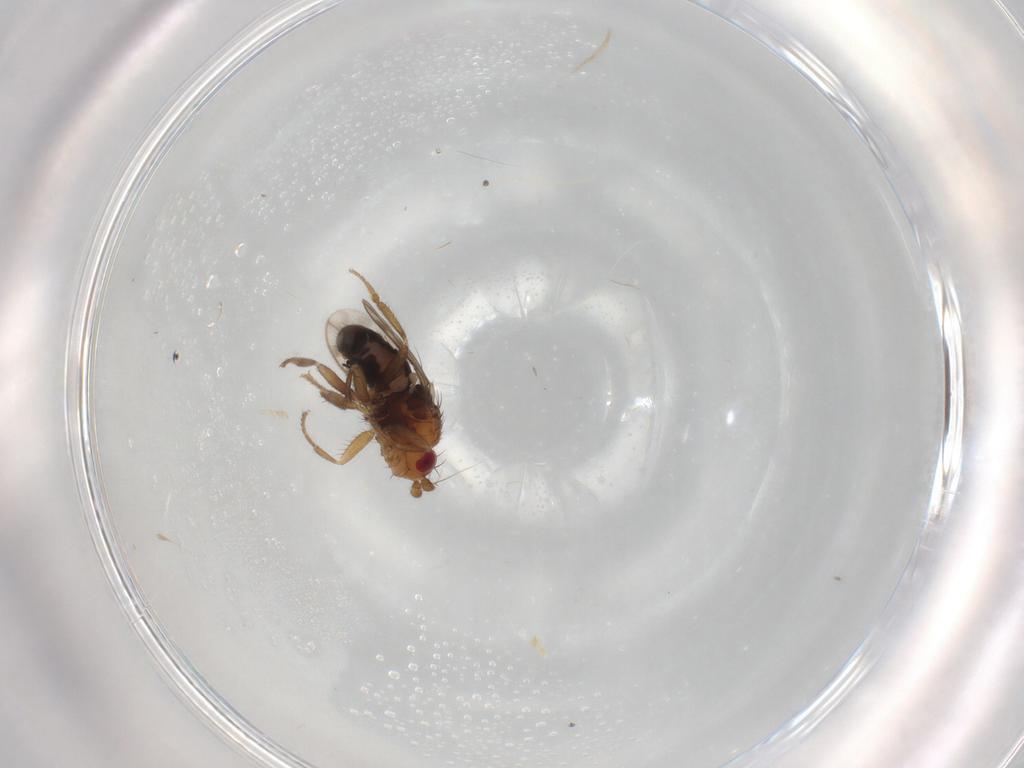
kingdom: Animalia
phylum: Arthropoda
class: Insecta
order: Diptera
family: Sphaeroceridae
